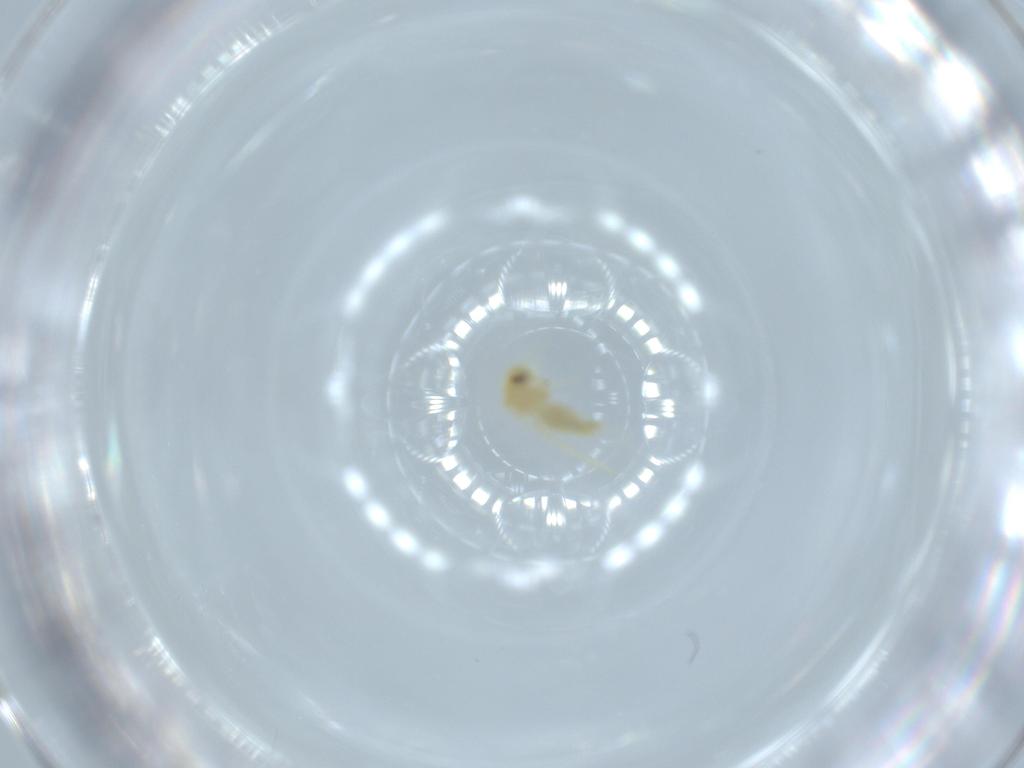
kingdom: Animalia
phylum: Arthropoda
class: Insecta
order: Hemiptera
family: Aleyrodidae
